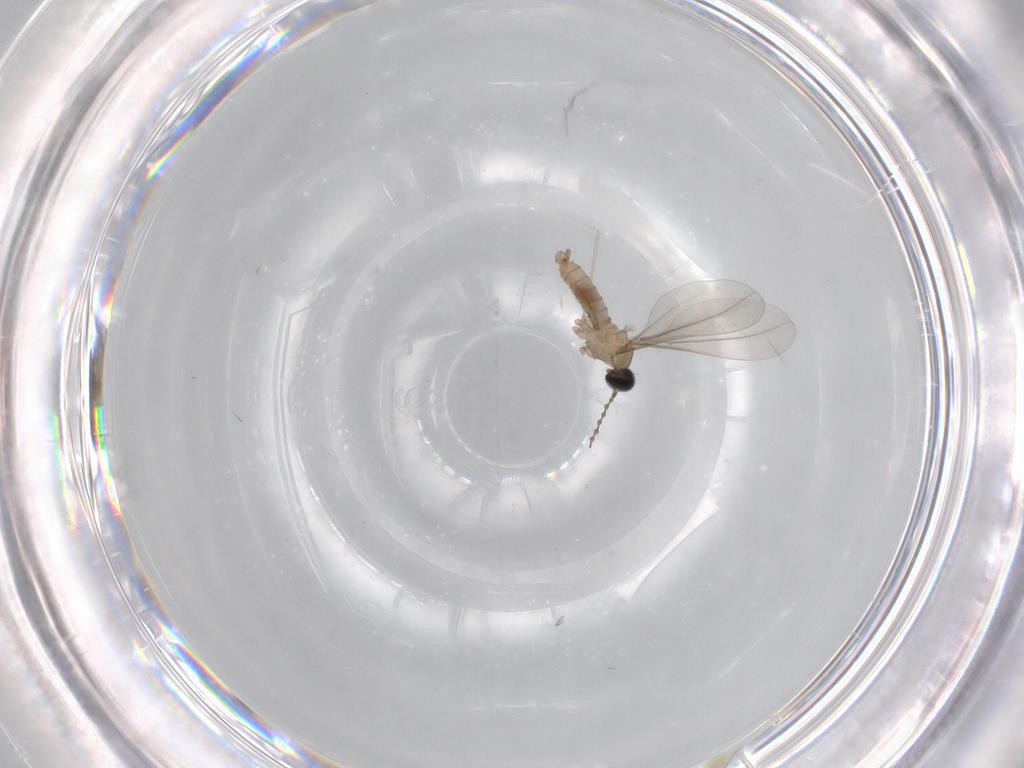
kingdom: Animalia
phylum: Arthropoda
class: Insecta
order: Diptera
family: Cecidomyiidae
